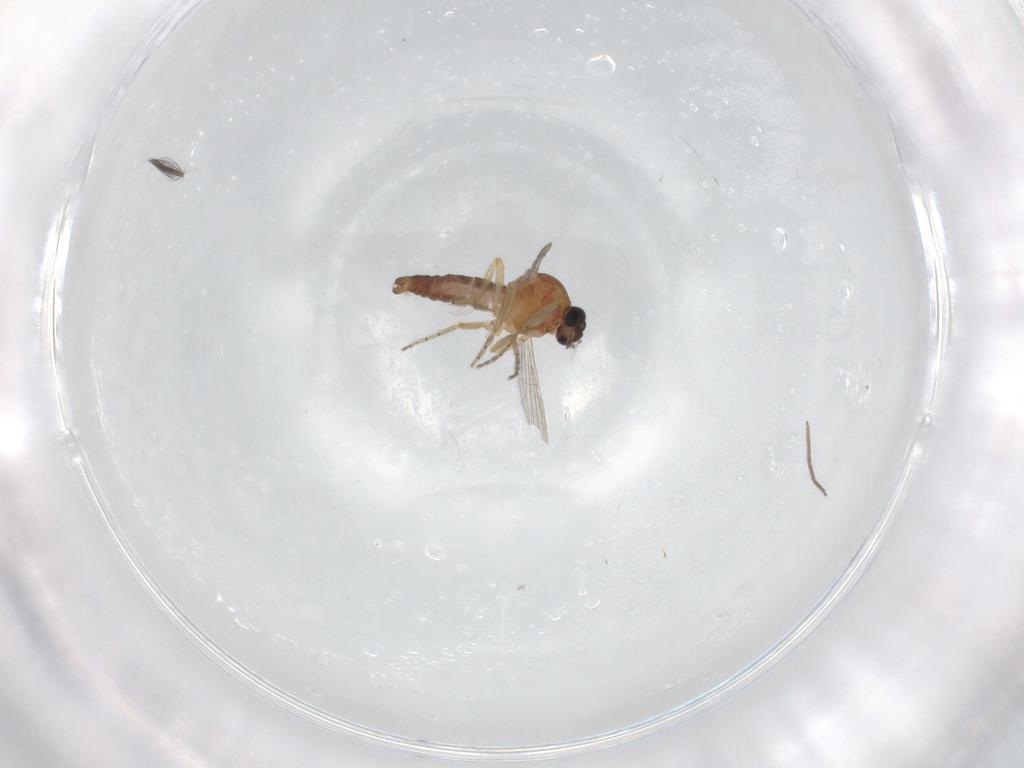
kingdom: Animalia
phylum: Arthropoda
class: Insecta
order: Diptera
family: Ceratopogonidae
